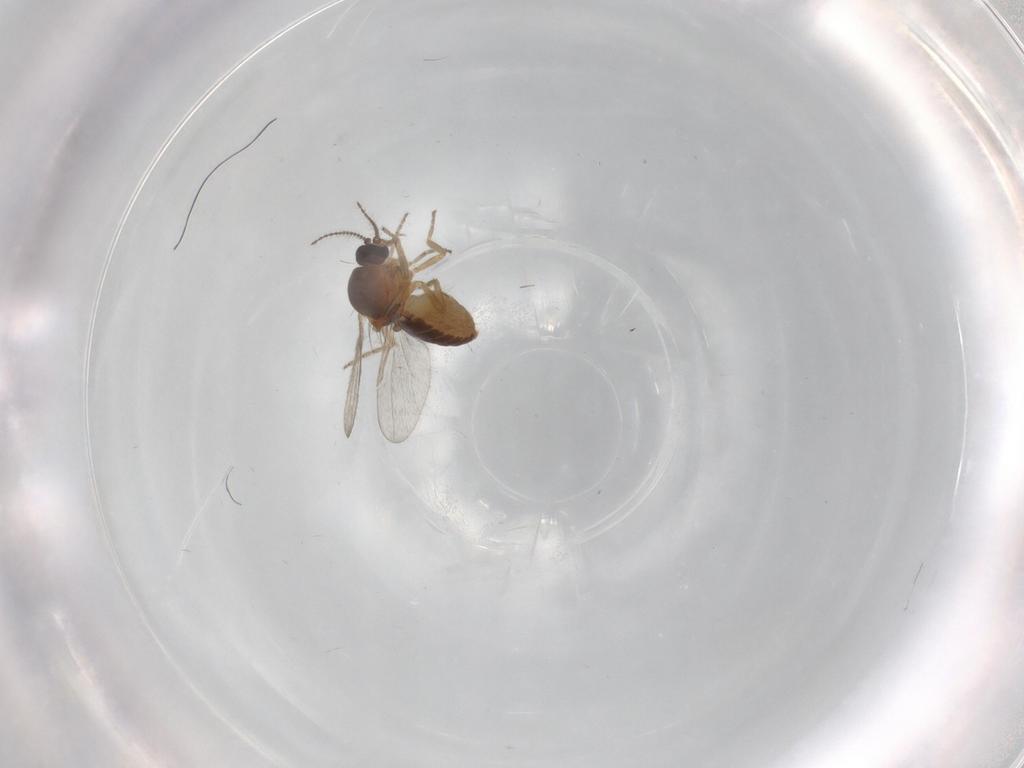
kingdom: Animalia
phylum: Arthropoda
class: Insecta
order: Diptera
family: Ceratopogonidae
